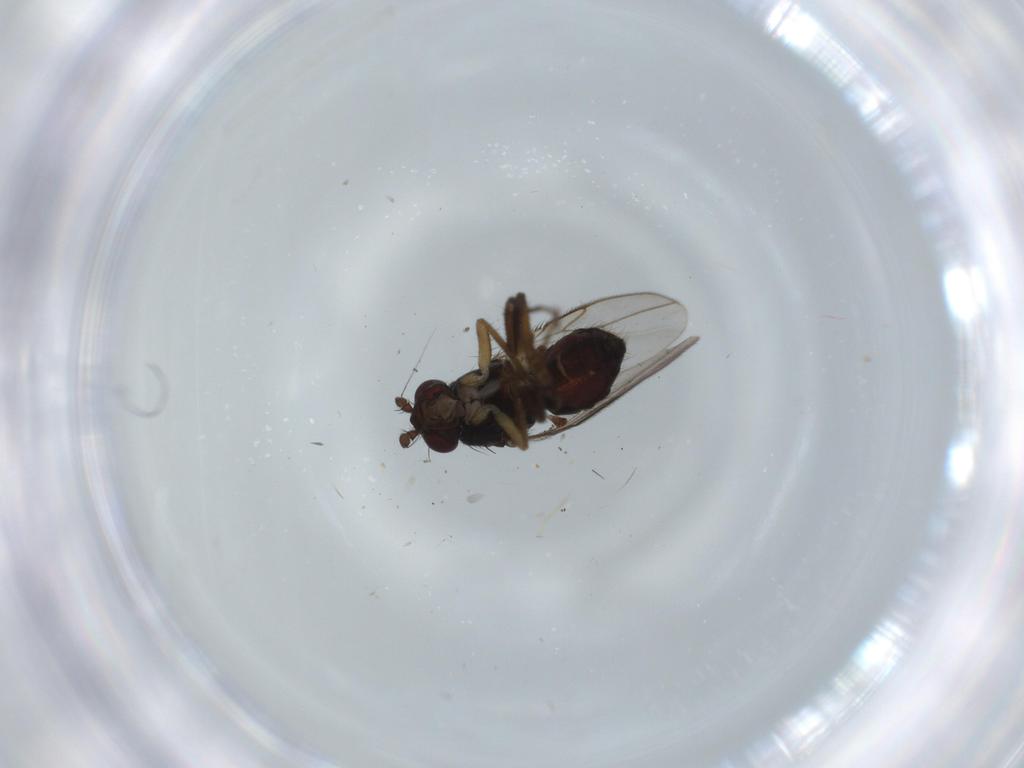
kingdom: Animalia
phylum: Arthropoda
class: Insecta
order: Diptera
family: Sphaeroceridae
